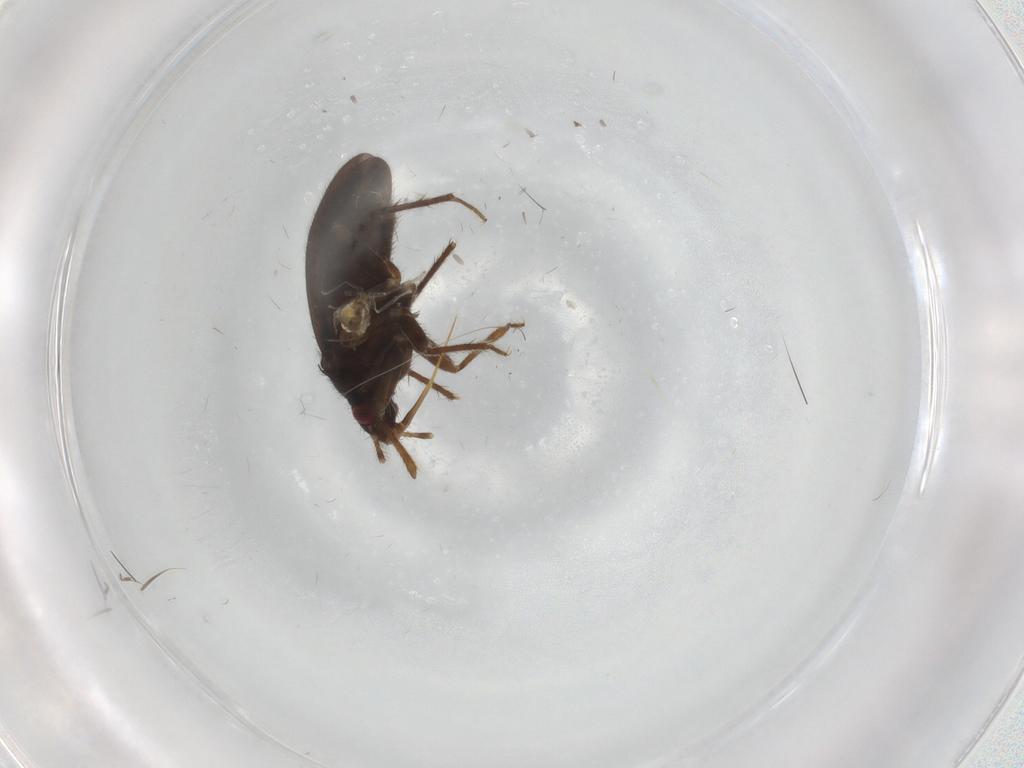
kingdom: Animalia
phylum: Arthropoda
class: Insecta
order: Hemiptera
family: Ceratocombidae
